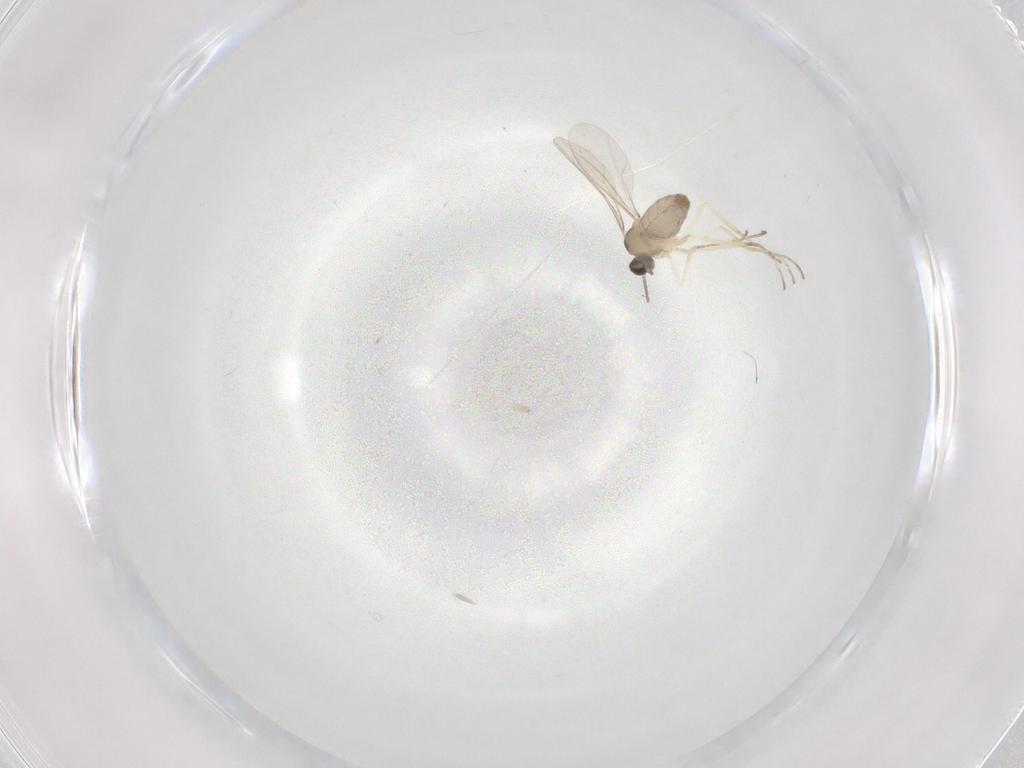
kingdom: Animalia
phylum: Arthropoda
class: Insecta
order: Diptera
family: Cecidomyiidae
